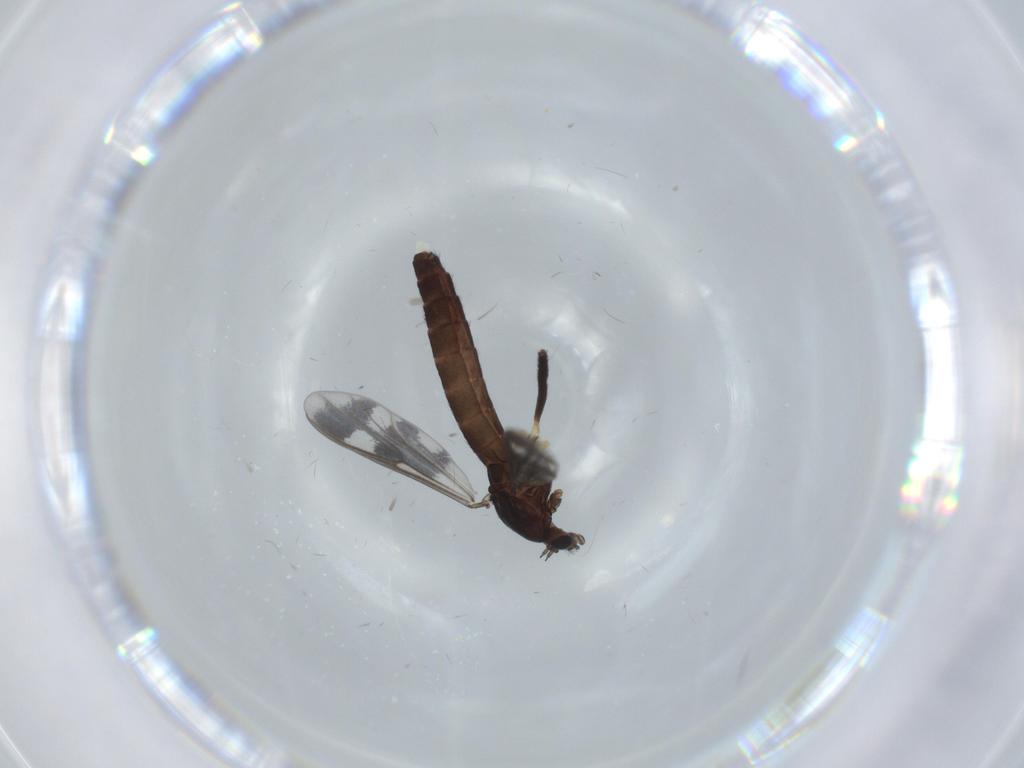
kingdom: Animalia
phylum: Arthropoda
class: Insecta
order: Diptera
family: Chironomidae
